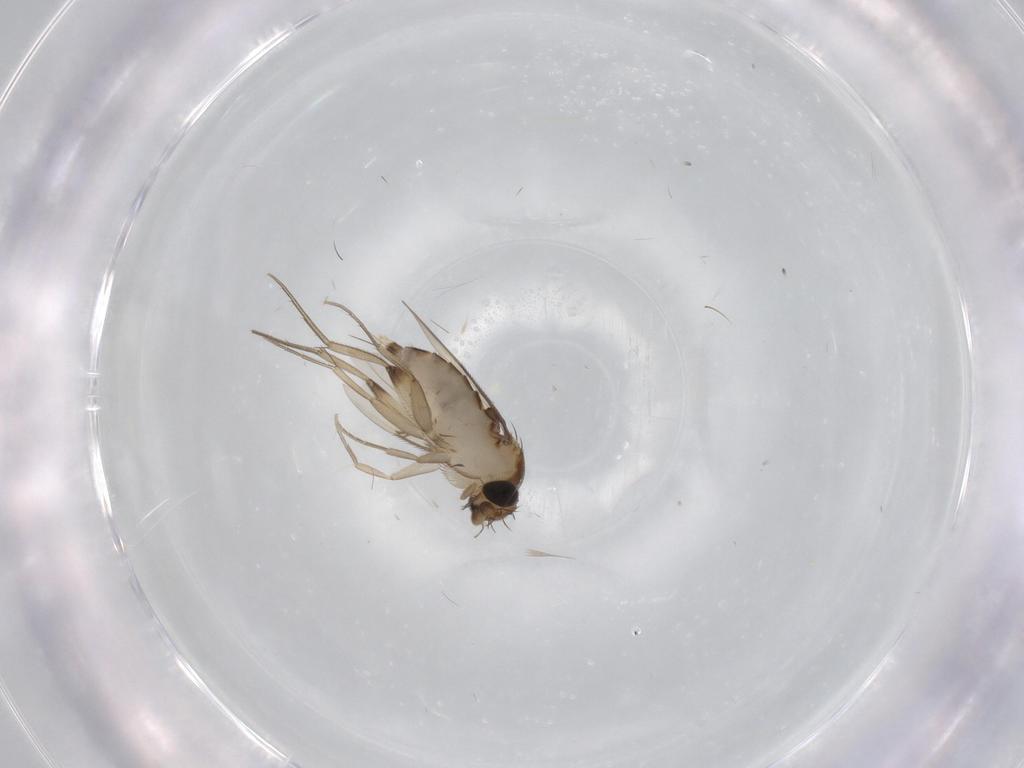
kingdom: Animalia
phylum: Arthropoda
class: Insecta
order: Diptera
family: Phoridae
